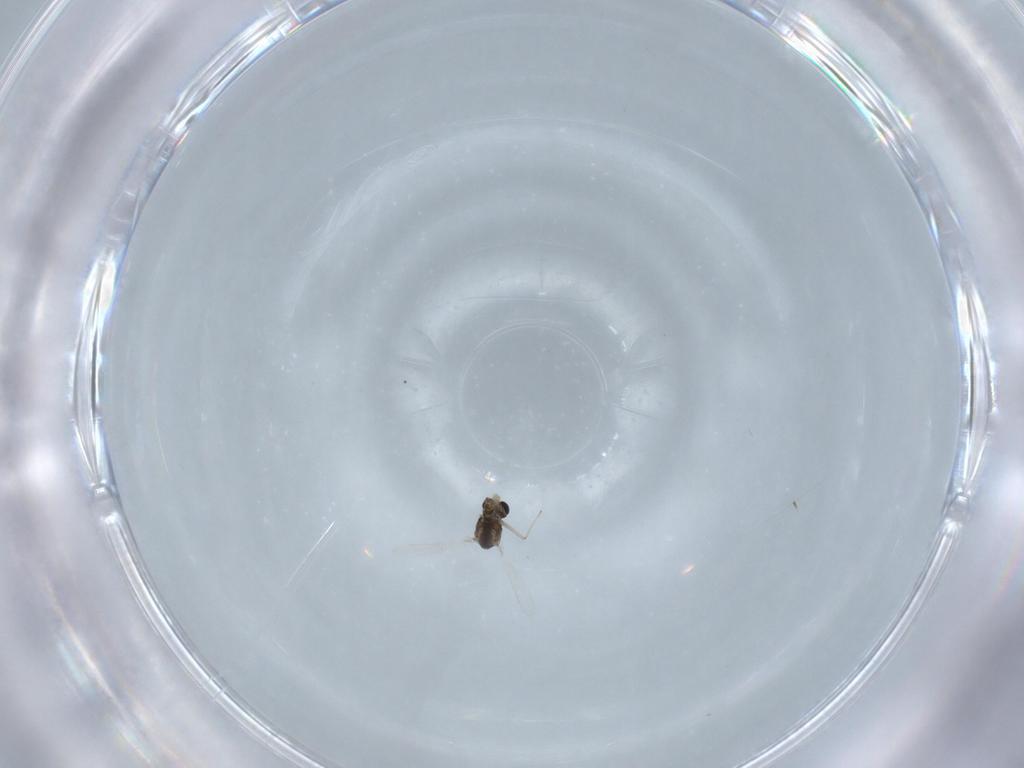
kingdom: Animalia
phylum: Arthropoda
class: Insecta
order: Diptera
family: Chironomidae
